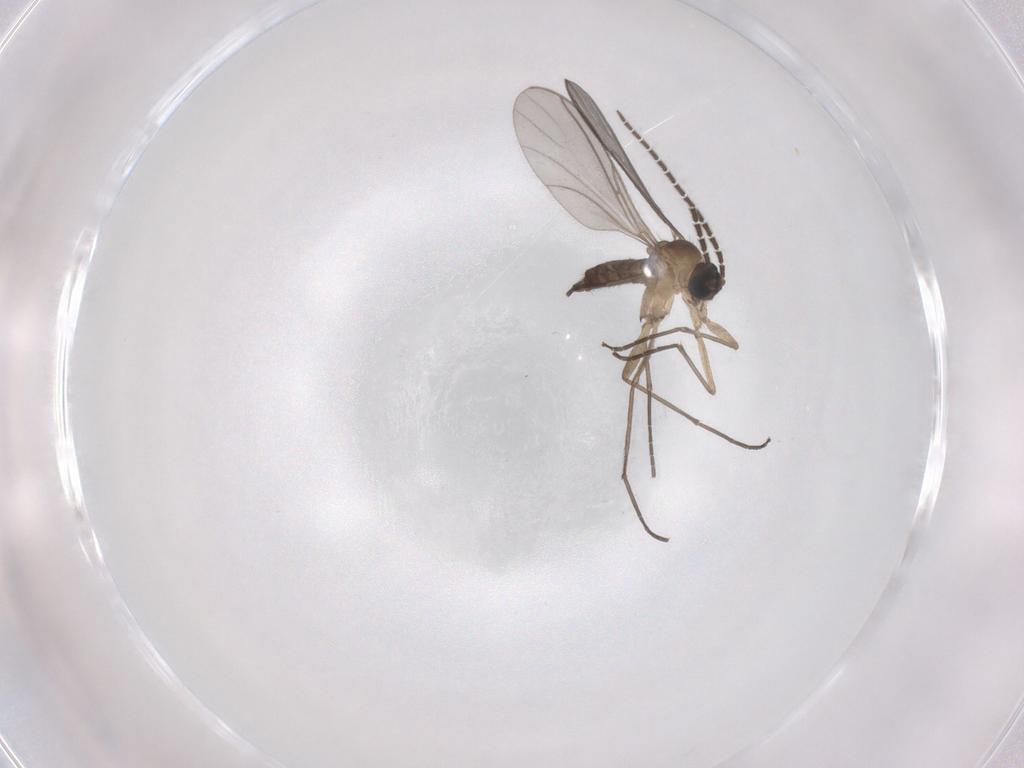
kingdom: Animalia
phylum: Arthropoda
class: Insecta
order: Diptera
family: Sciaridae
